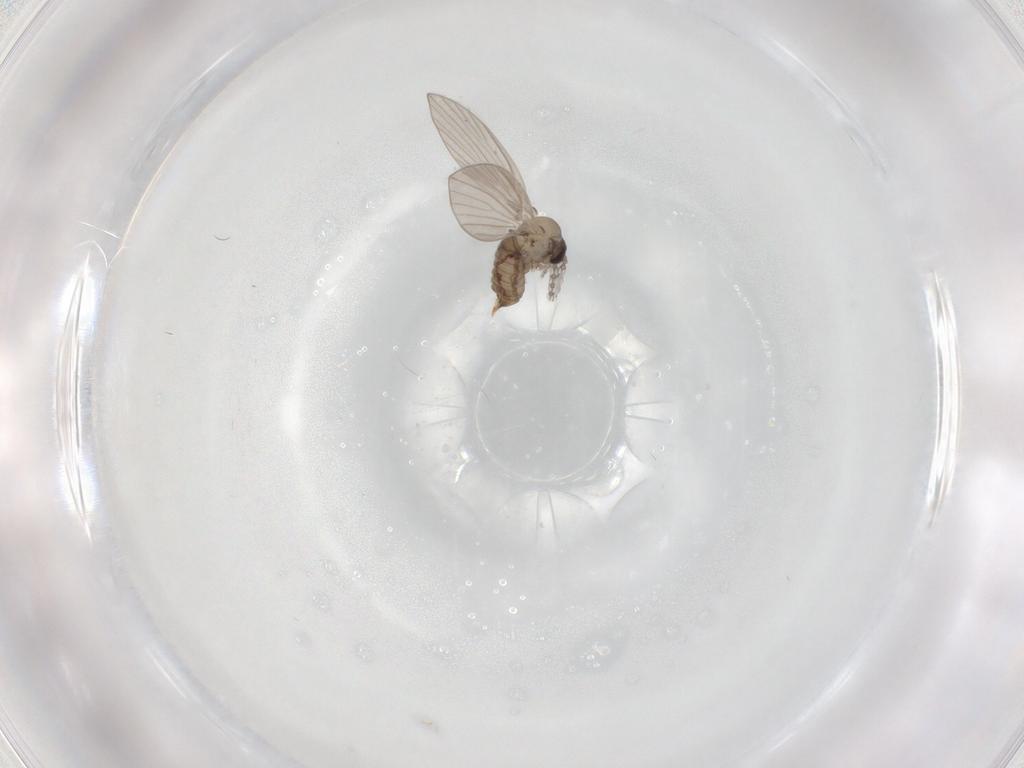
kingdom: Animalia
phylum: Arthropoda
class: Insecta
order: Diptera
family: Psychodidae
